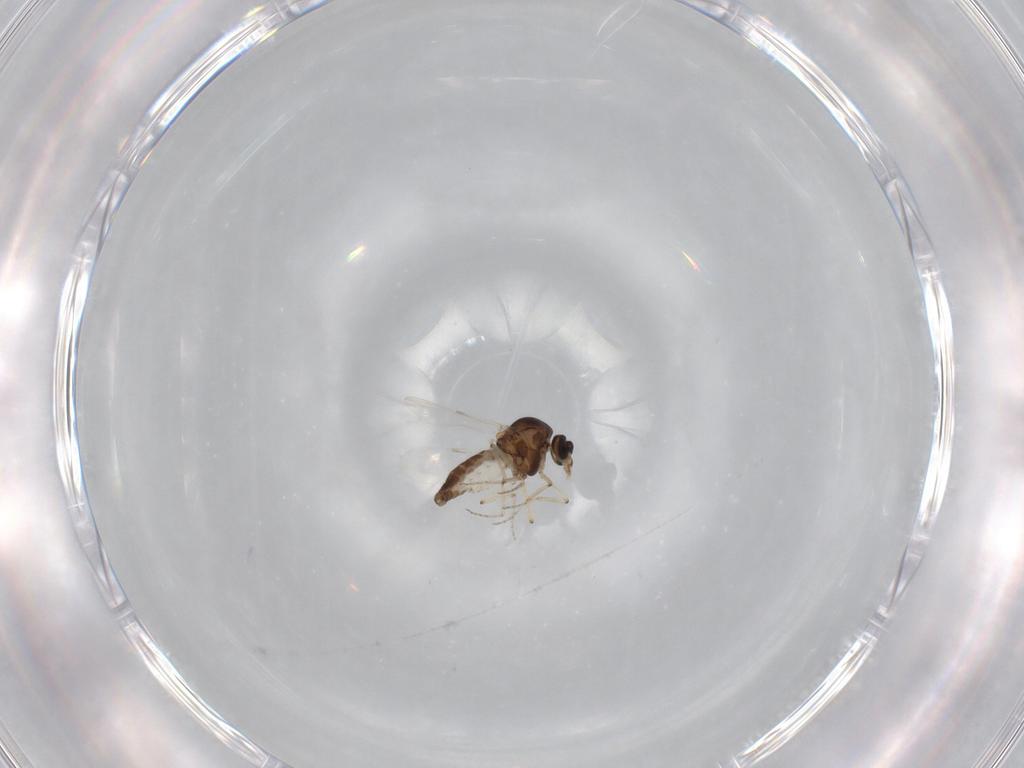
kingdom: Animalia
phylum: Arthropoda
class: Insecta
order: Diptera
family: Ceratopogonidae
